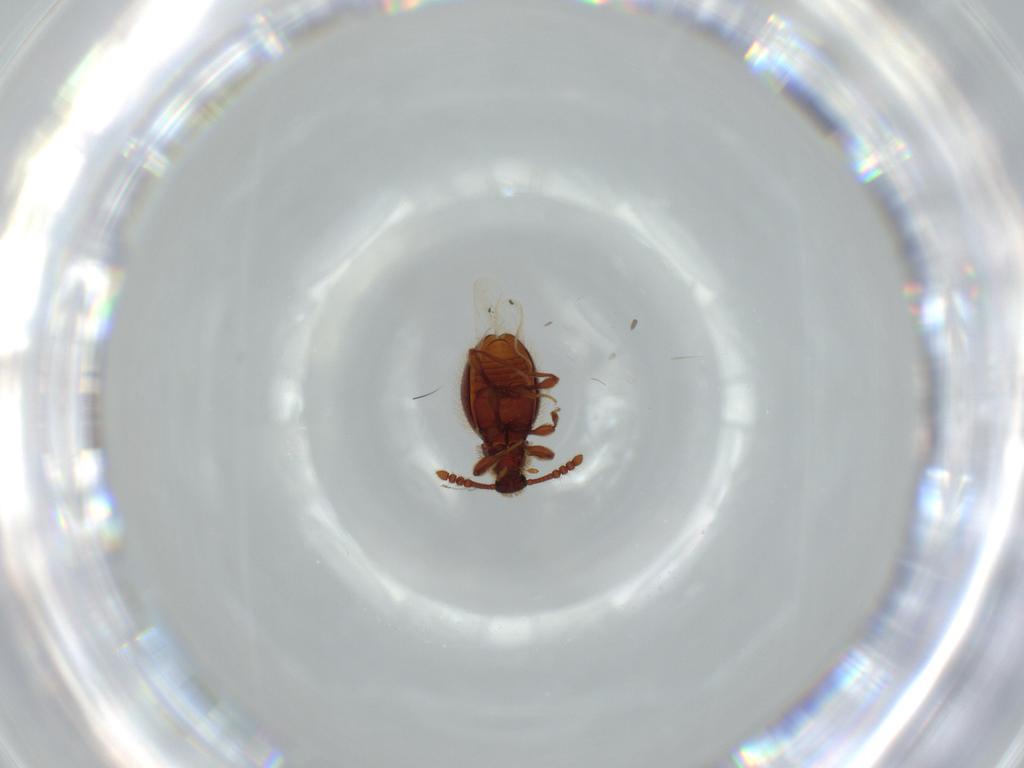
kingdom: Animalia
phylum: Arthropoda
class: Insecta
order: Coleoptera
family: Staphylinidae
